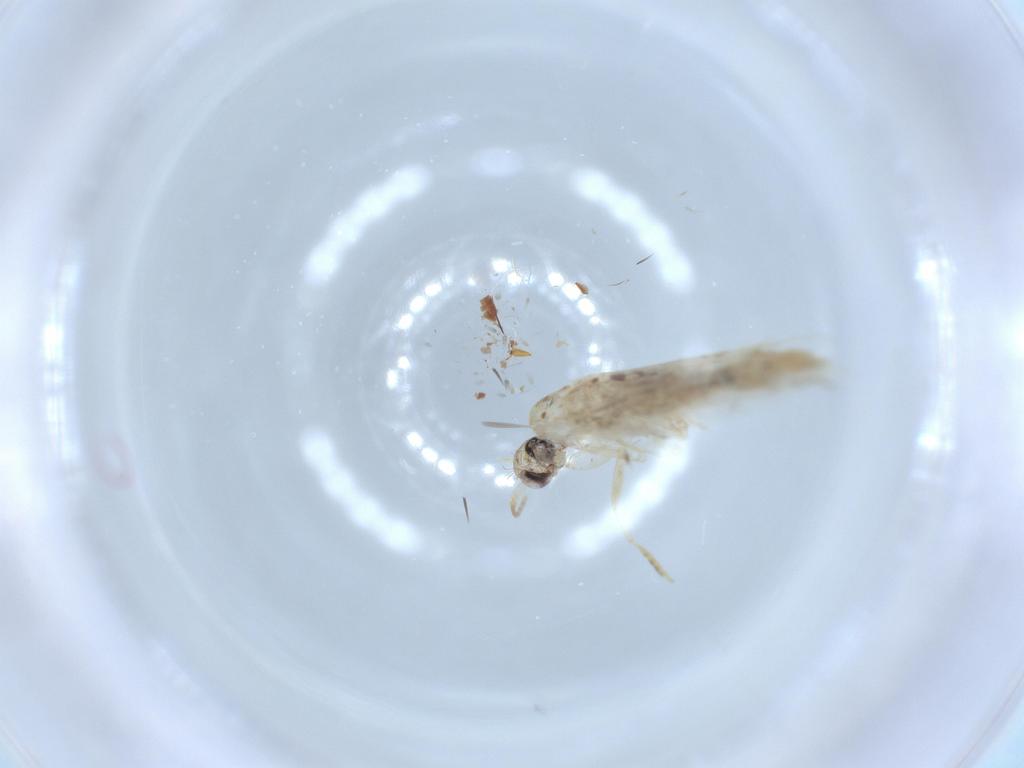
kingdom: Animalia
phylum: Arthropoda
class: Insecta
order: Lepidoptera
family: Tineidae
